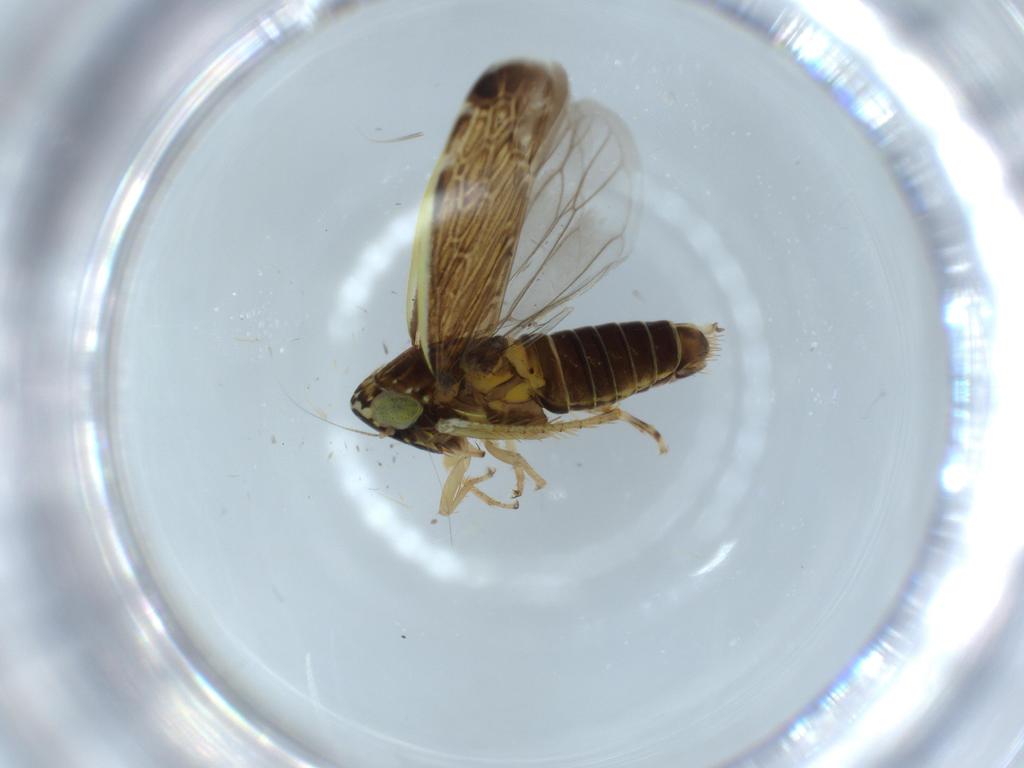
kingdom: Animalia
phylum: Arthropoda
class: Insecta
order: Hemiptera
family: Cicadellidae
